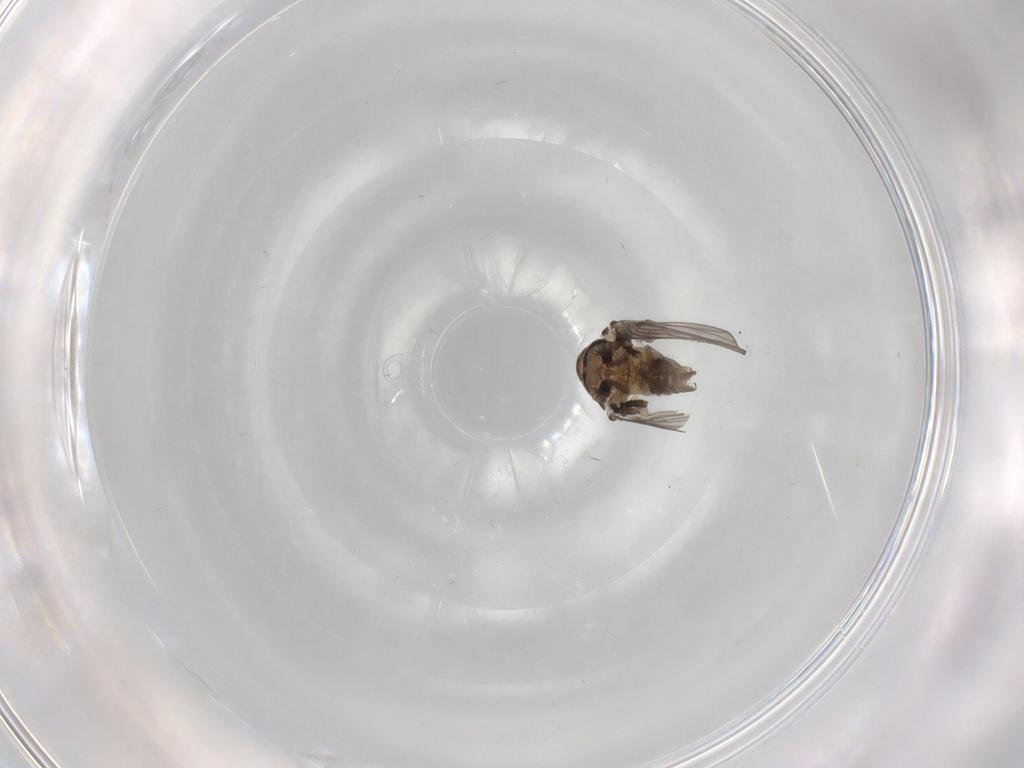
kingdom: Animalia
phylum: Arthropoda
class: Insecta
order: Diptera
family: Psychodidae
